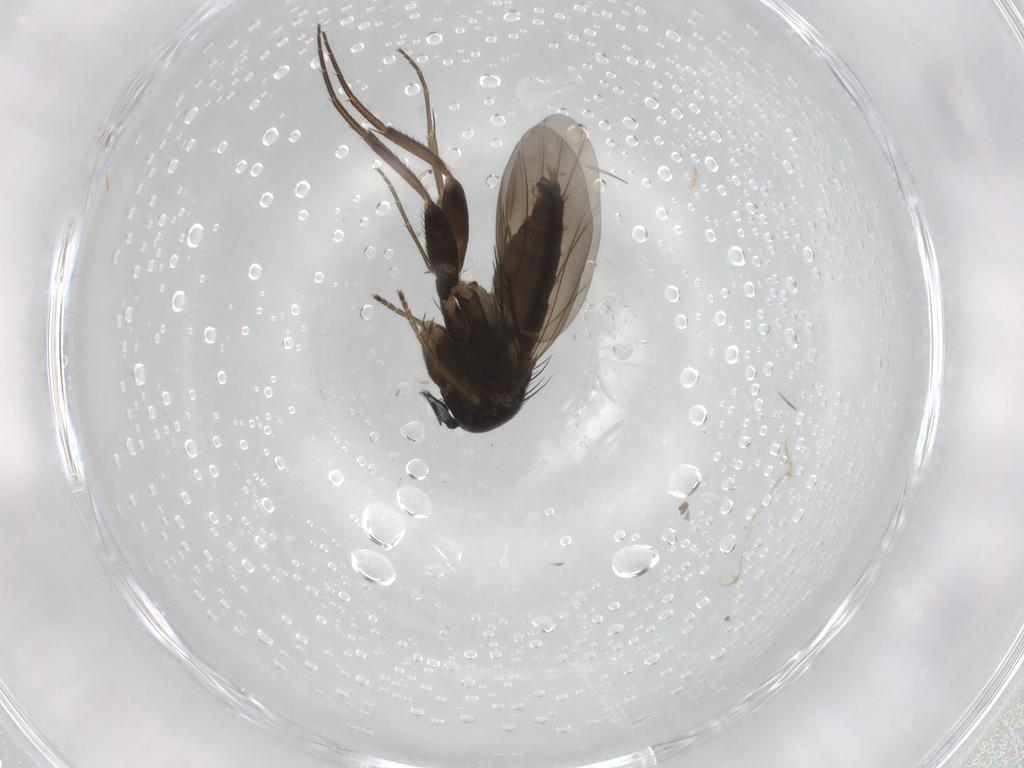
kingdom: Animalia
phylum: Arthropoda
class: Insecta
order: Diptera
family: Phoridae
